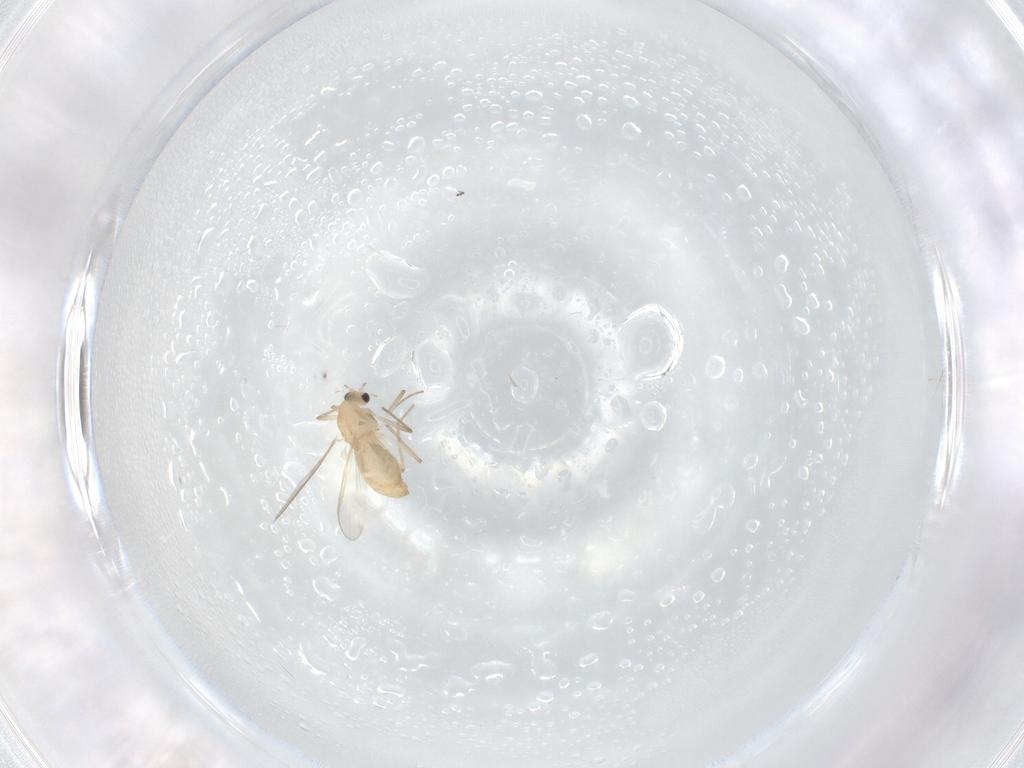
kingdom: Animalia
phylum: Arthropoda
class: Insecta
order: Diptera
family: Chironomidae
